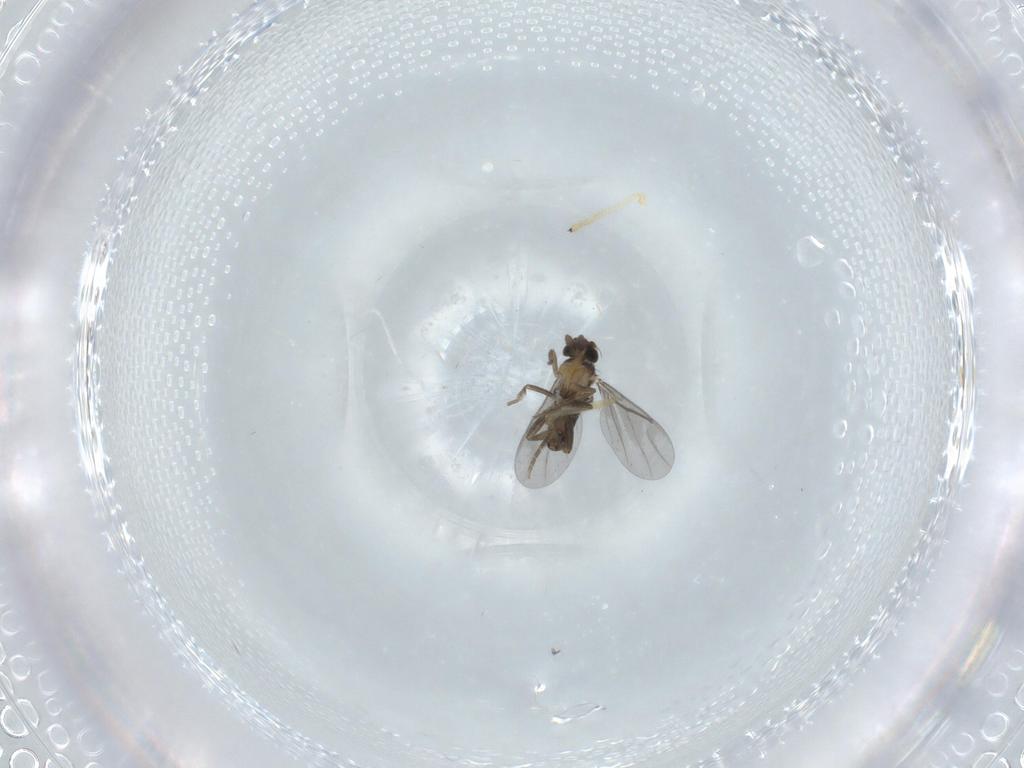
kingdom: Animalia
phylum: Arthropoda
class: Insecta
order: Diptera
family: Chironomidae
